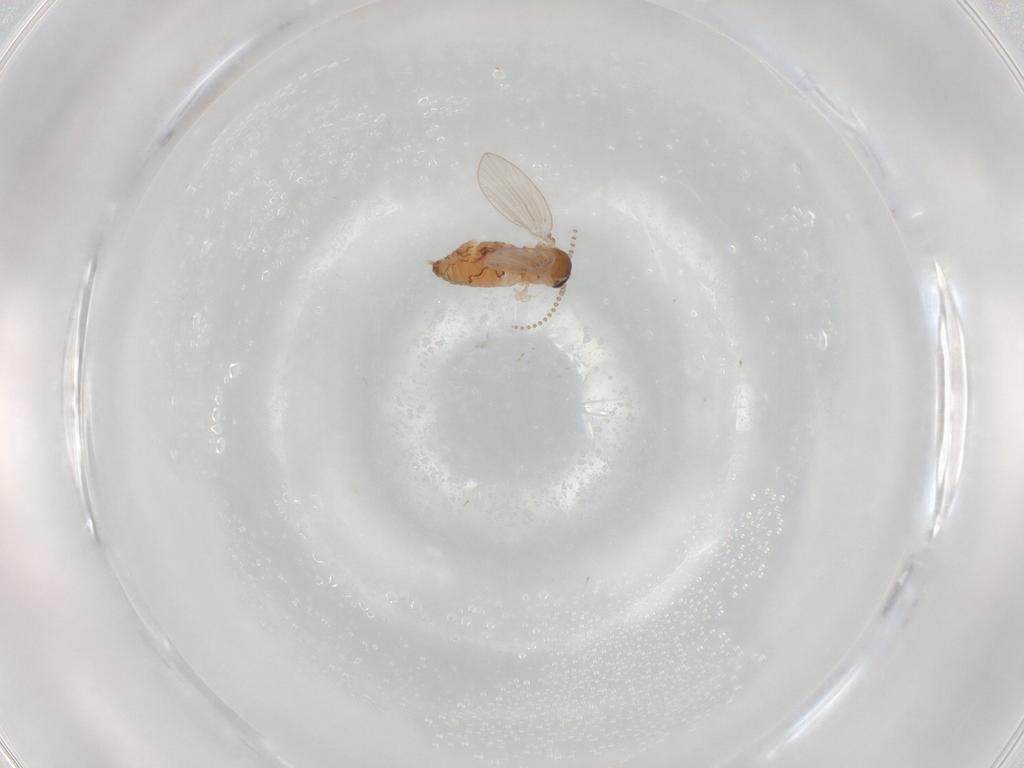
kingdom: Animalia
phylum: Arthropoda
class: Insecta
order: Diptera
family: Psychodidae
